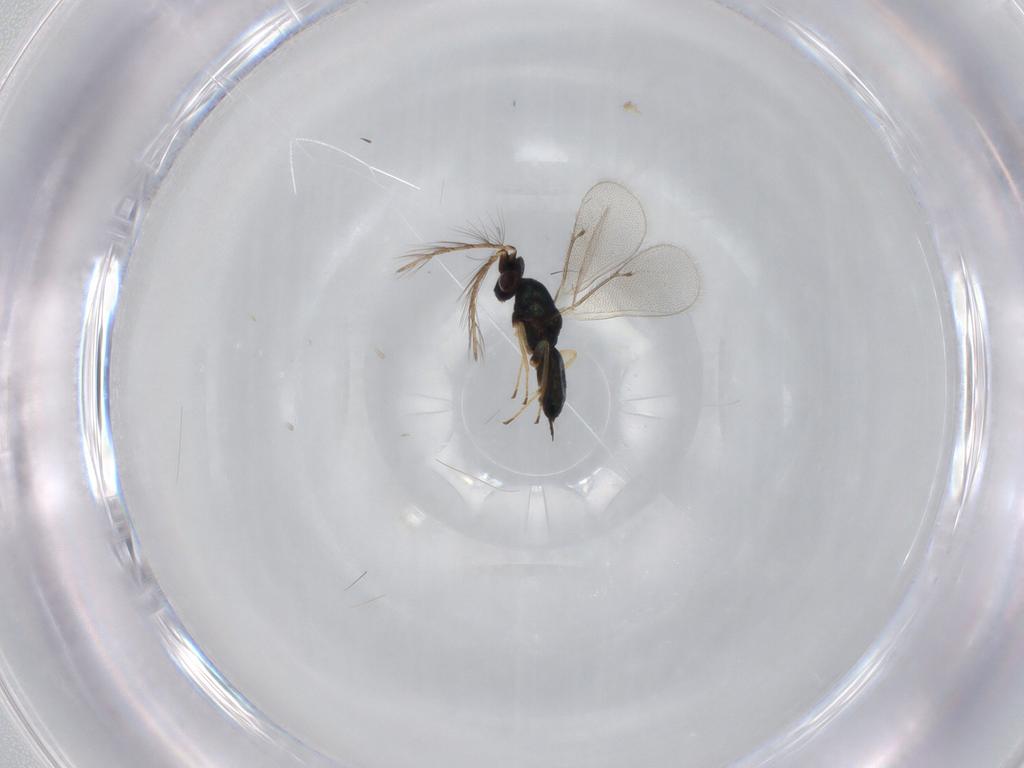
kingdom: Animalia
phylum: Arthropoda
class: Insecta
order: Hymenoptera
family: Eulophidae
